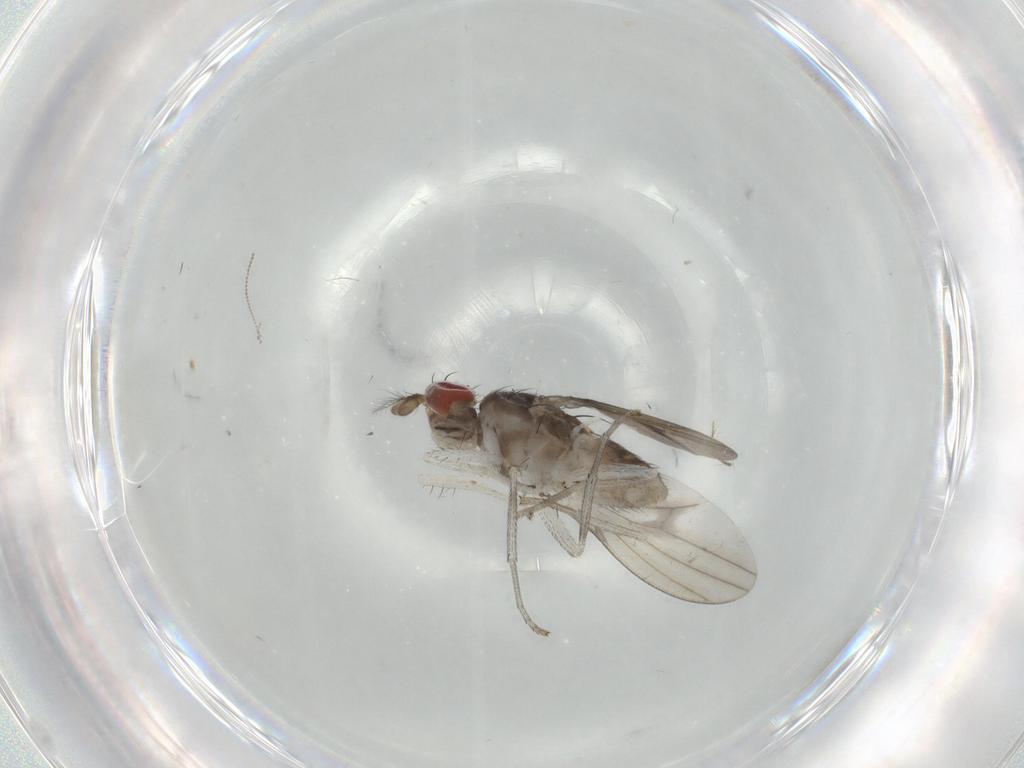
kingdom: Animalia
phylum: Arthropoda
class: Insecta
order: Diptera
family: Ceratopogonidae
